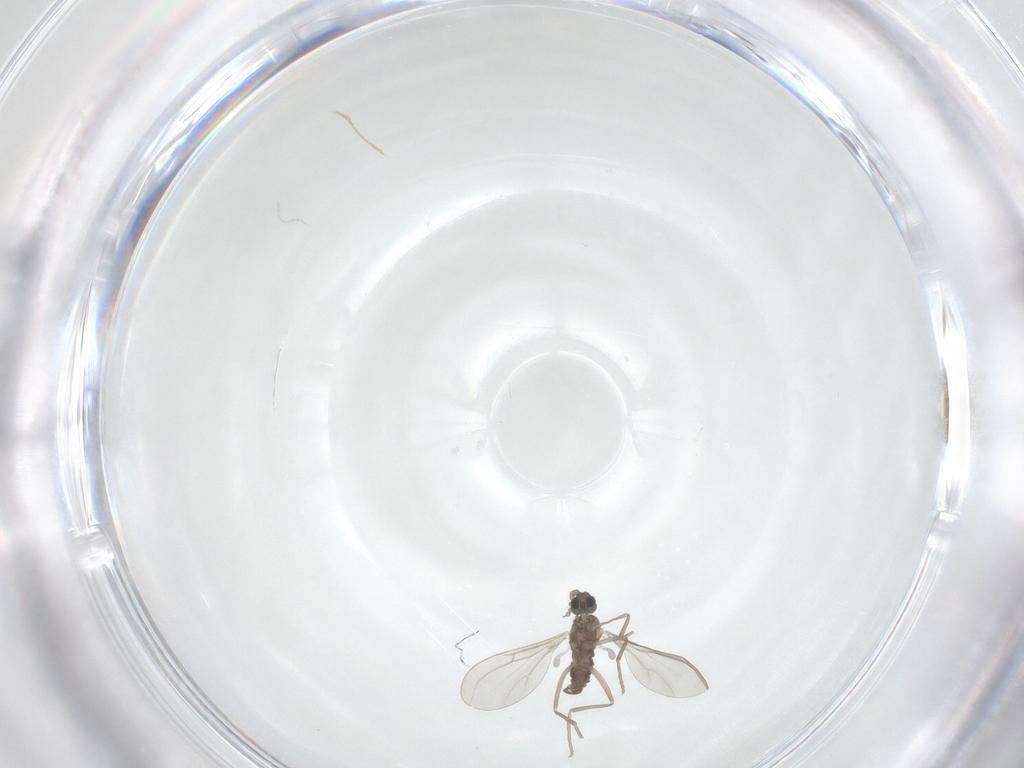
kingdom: Animalia
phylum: Arthropoda
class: Insecta
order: Diptera
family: Cecidomyiidae
